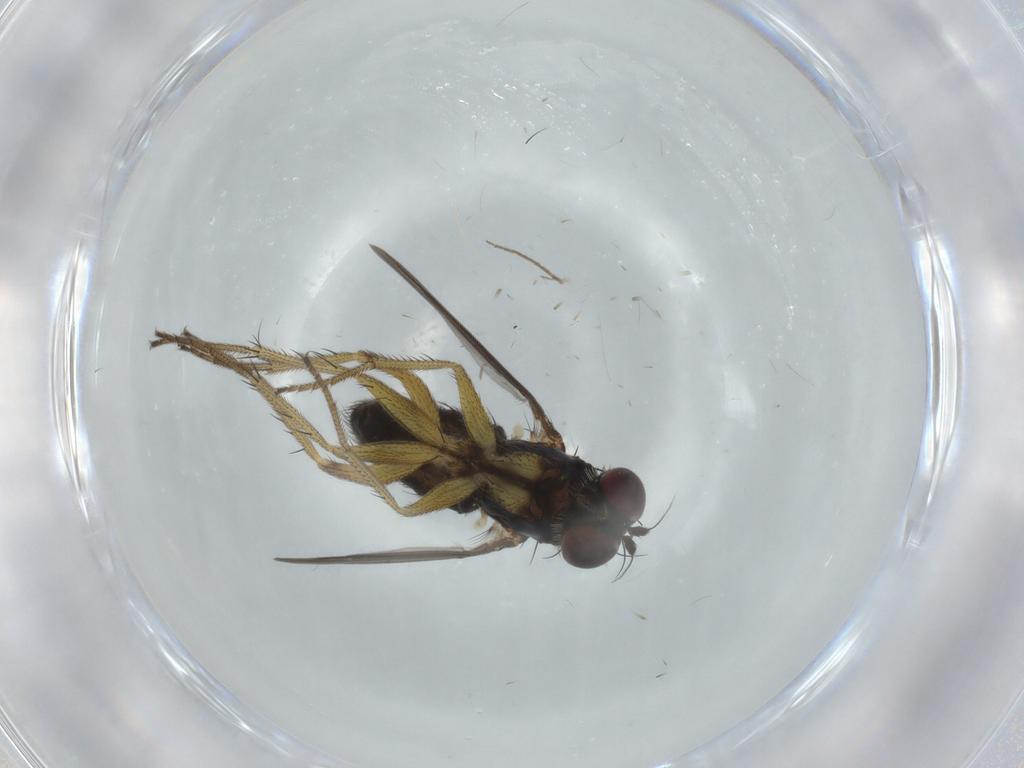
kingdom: Animalia
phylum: Arthropoda
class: Insecta
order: Diptera
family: Dolichopodidae
